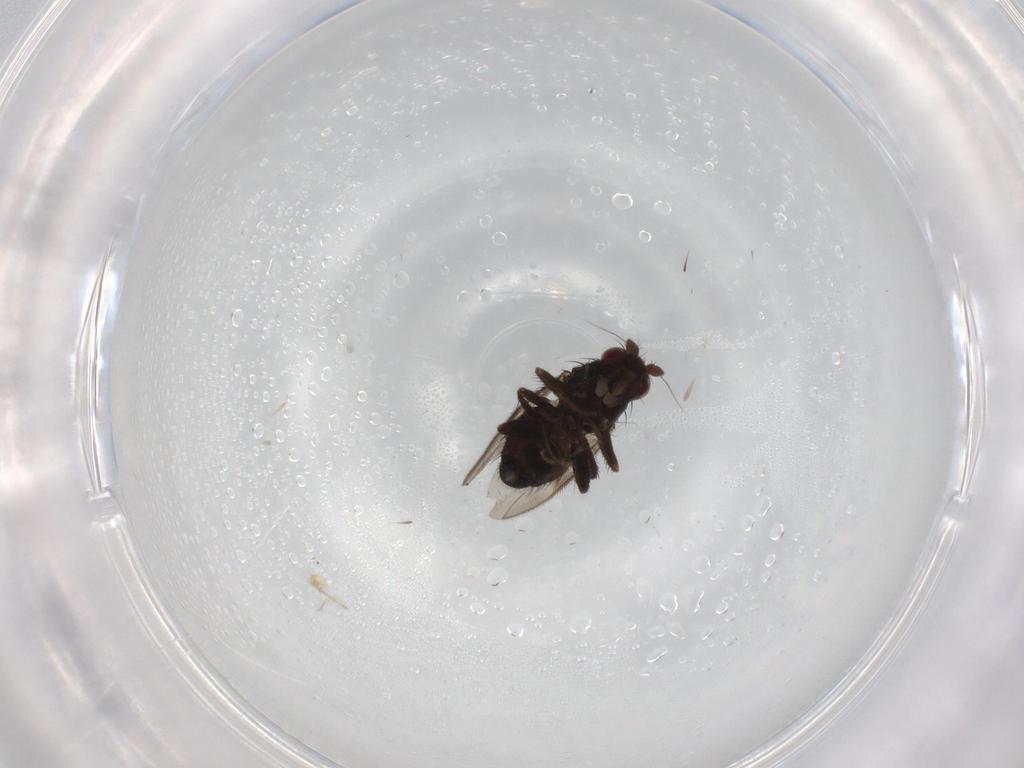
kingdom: Animalia
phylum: Arthropoda
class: Insecta
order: Diptera
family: Sphaeroceridae
